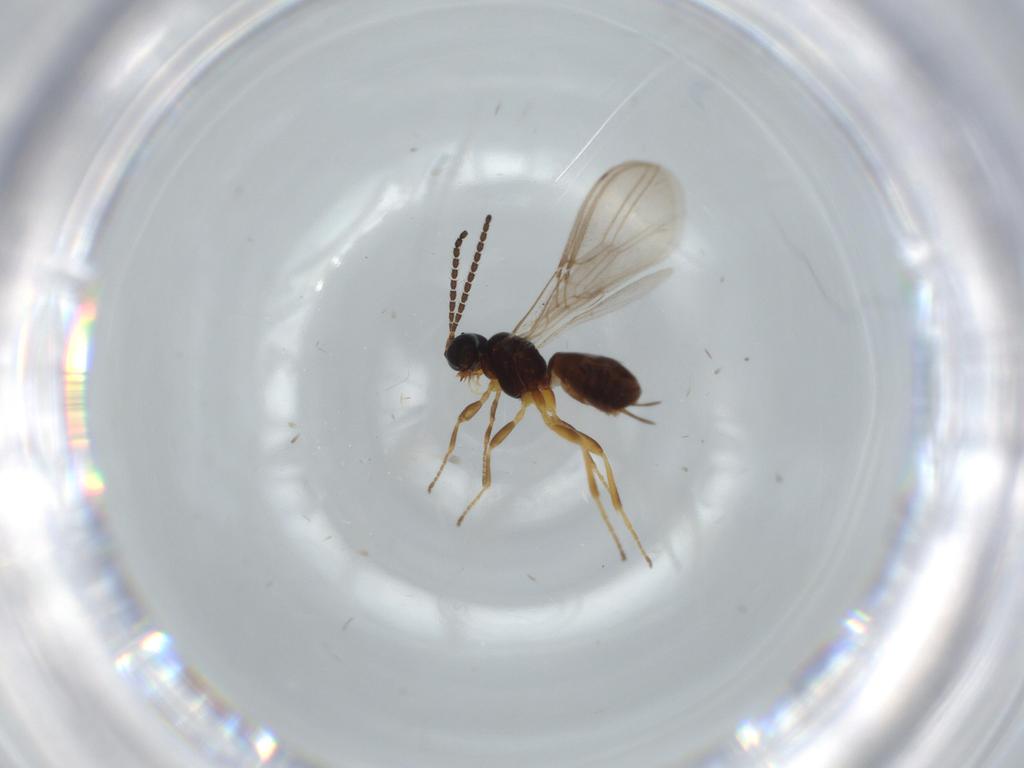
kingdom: Animalia
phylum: Arthropoda
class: Insecta
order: Hymenoptera
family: Braconidae
